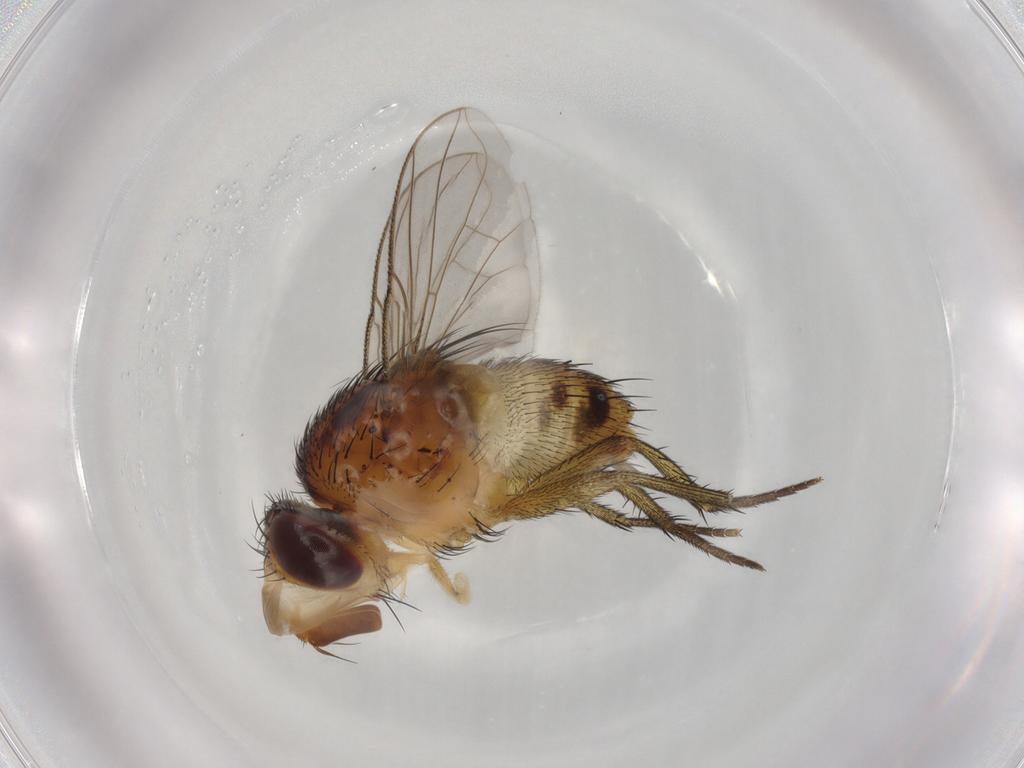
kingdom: Animalia
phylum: Arthropoda
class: Insecta
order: Diptera
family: Tachinidae
